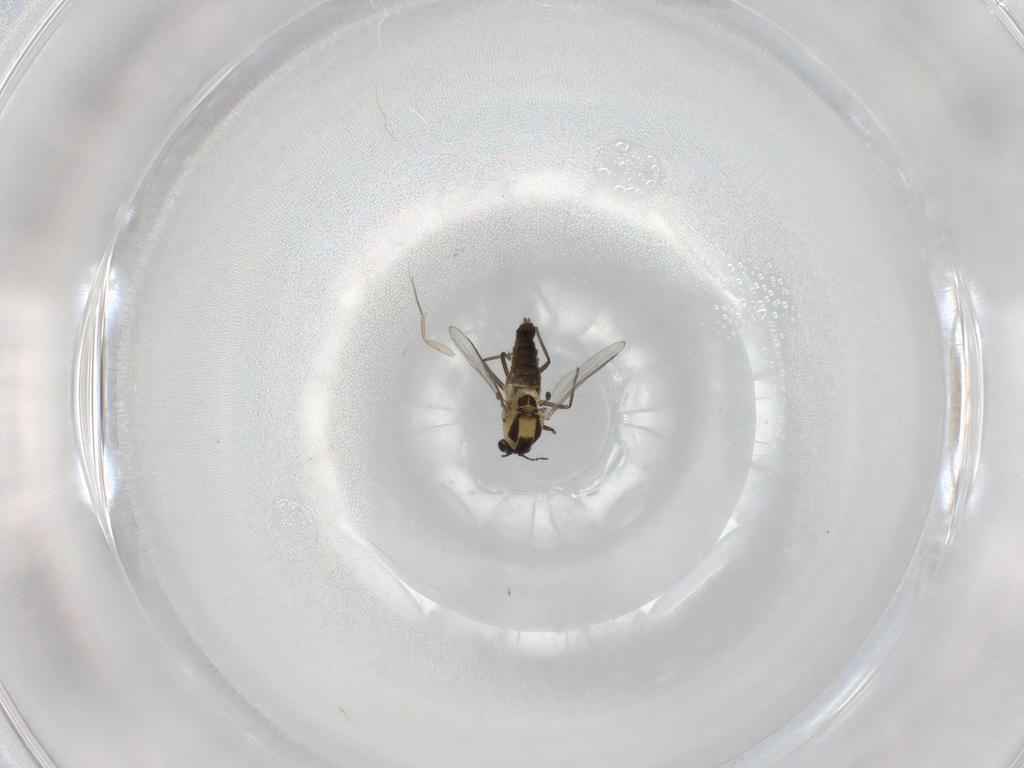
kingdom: Animalia
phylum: Arthropoda
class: Insecta
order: Diptera
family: Chironomidae
